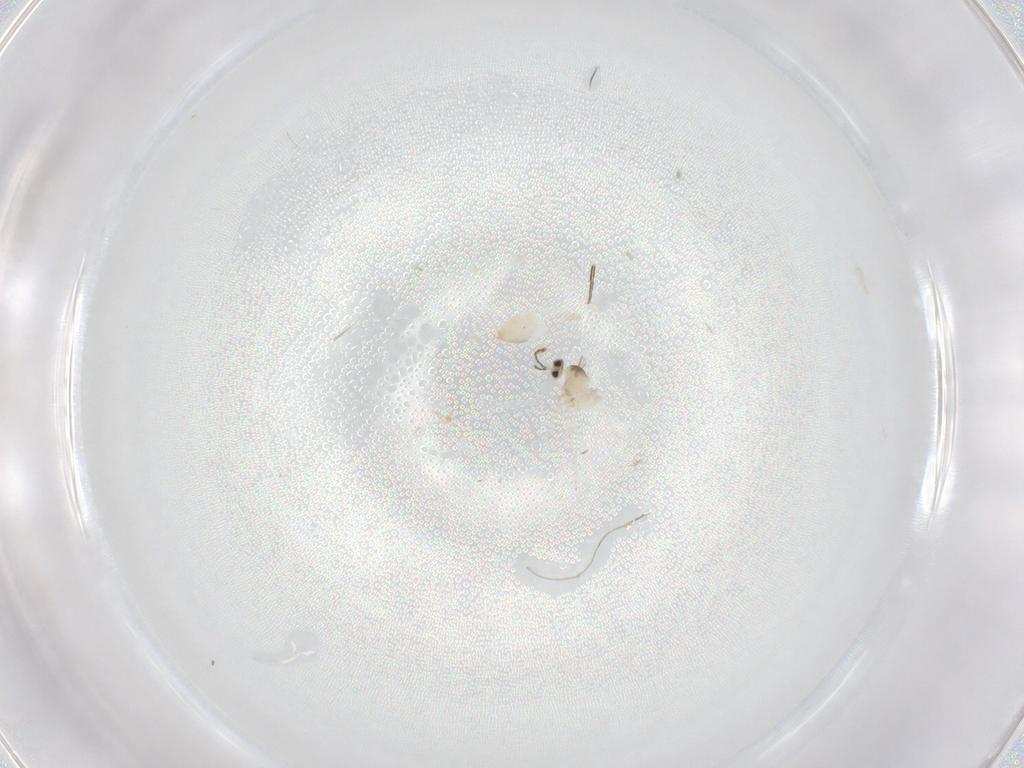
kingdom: Animalia
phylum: Arthropoda
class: Insecta
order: Diptera
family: Cecidomyiidae
